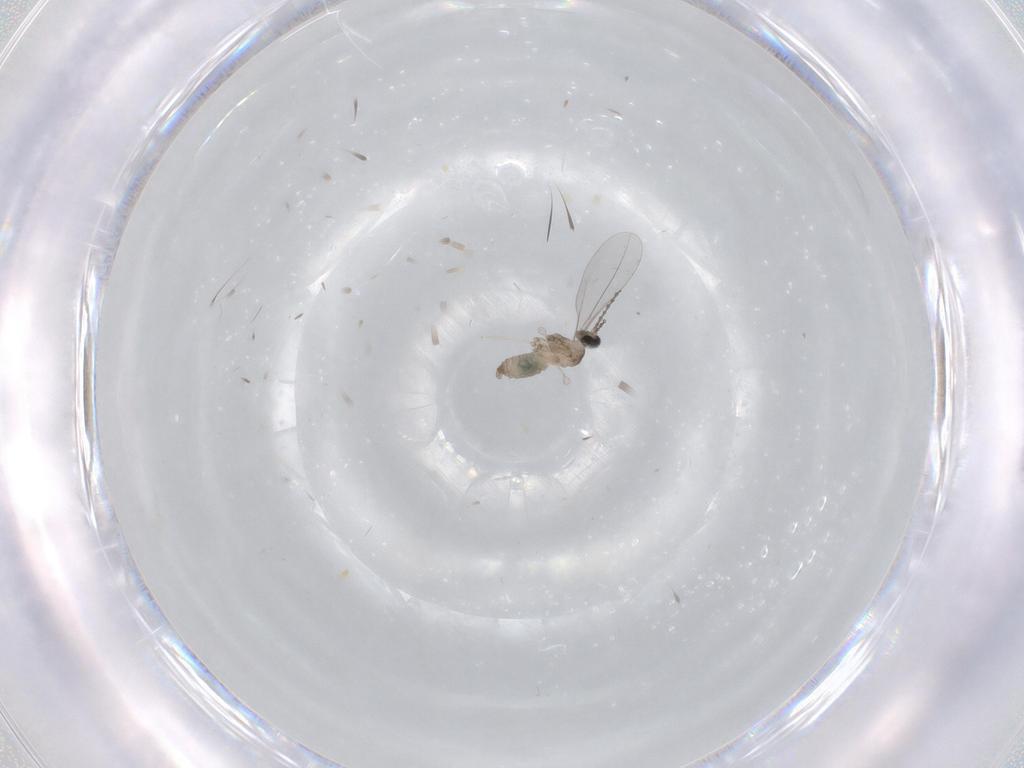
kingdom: Animalia
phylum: Arthropoda
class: Insecta
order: Diptera
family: Cecidomyiidae
